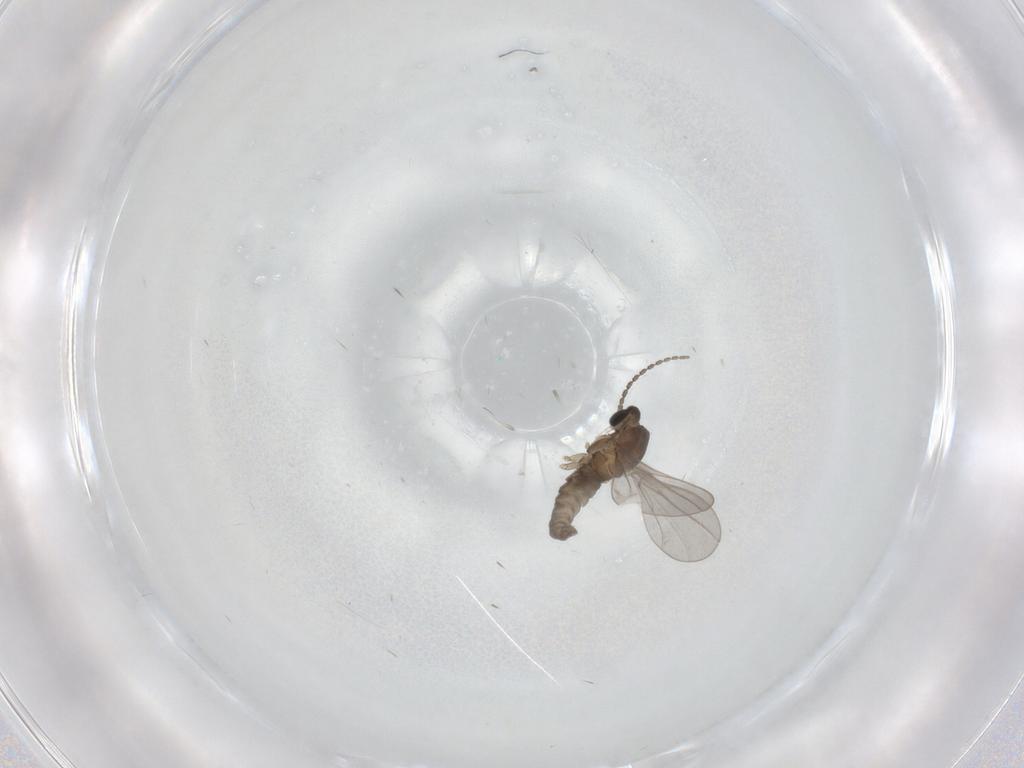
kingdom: Animalia
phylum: Arthropoda
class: Insecta
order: Diptera
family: Cecidomyiidae
